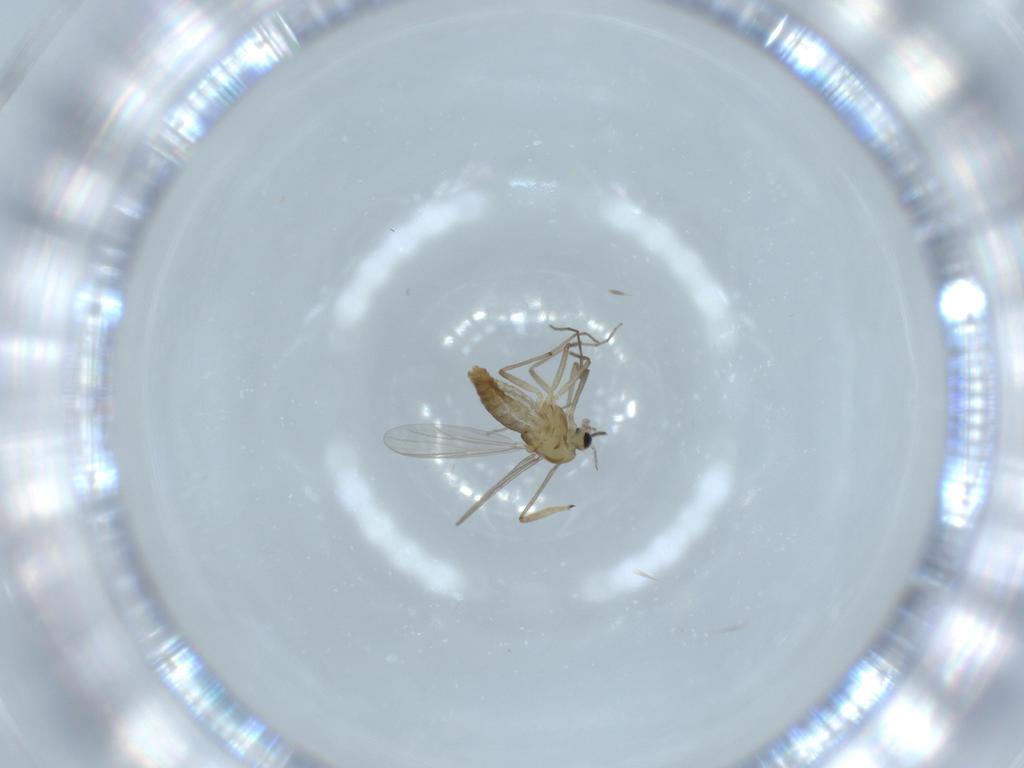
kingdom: Animalia
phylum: Arthropoda
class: Insecta
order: Diptera
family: Chironomidae
